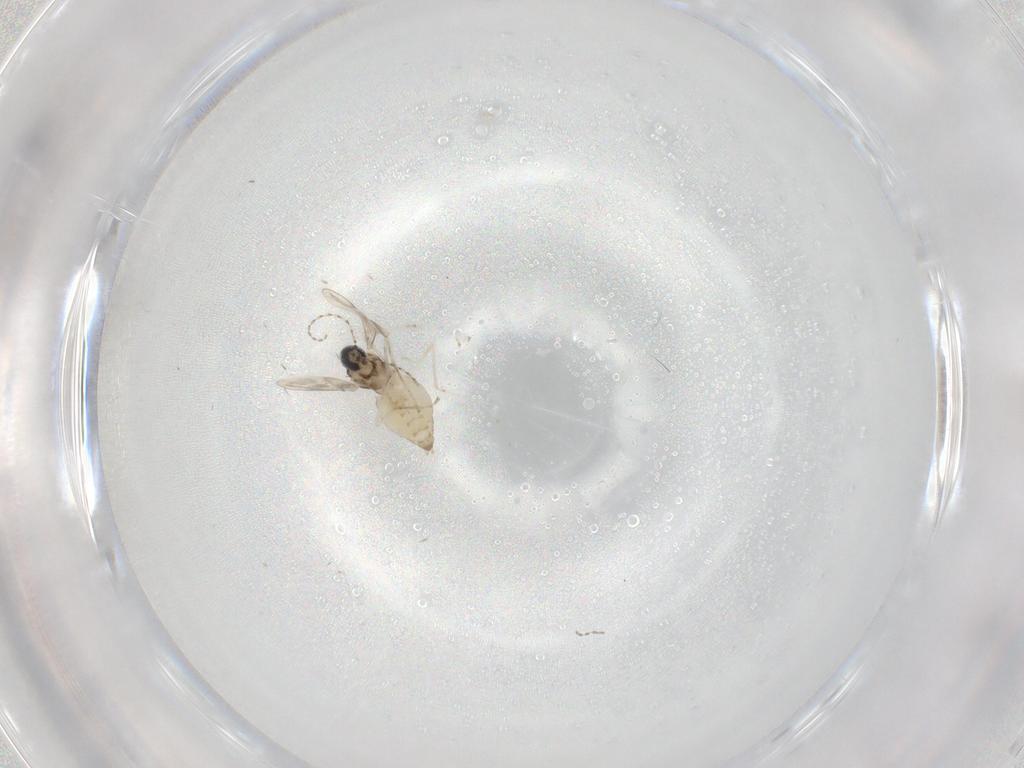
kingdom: Animalia
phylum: Arthropoda
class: Insecta
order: Diptera
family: Cecidomyiidae
